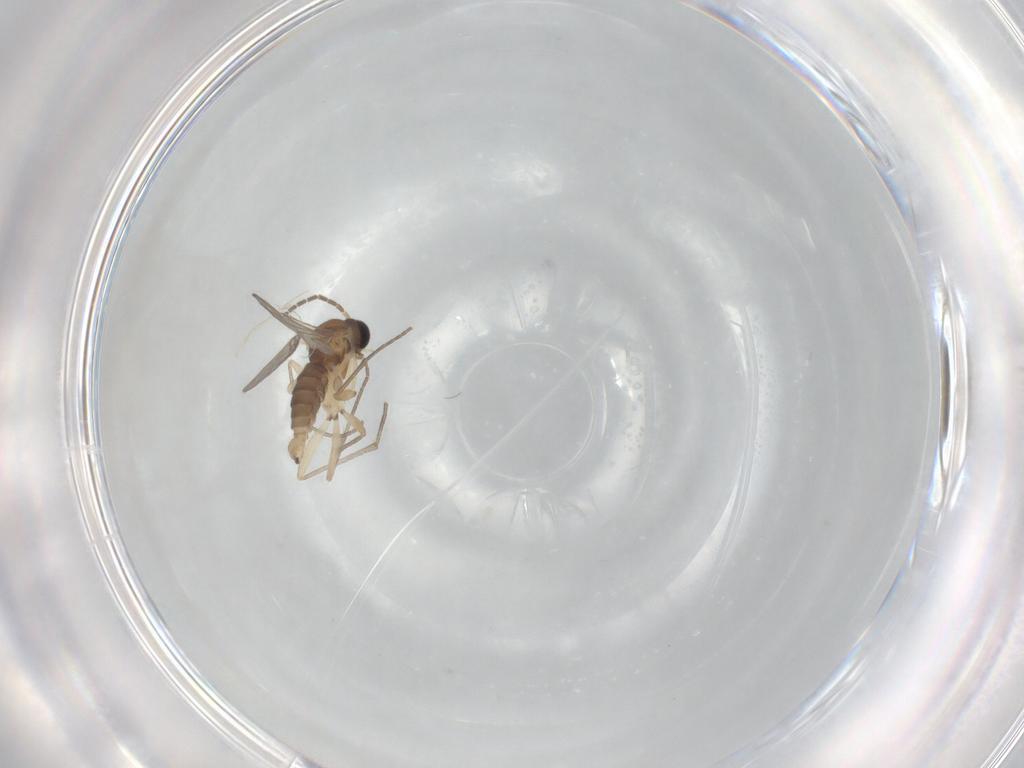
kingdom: Animalia
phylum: Arthropoda
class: Insecta
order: Diptera
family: Sciaridae
